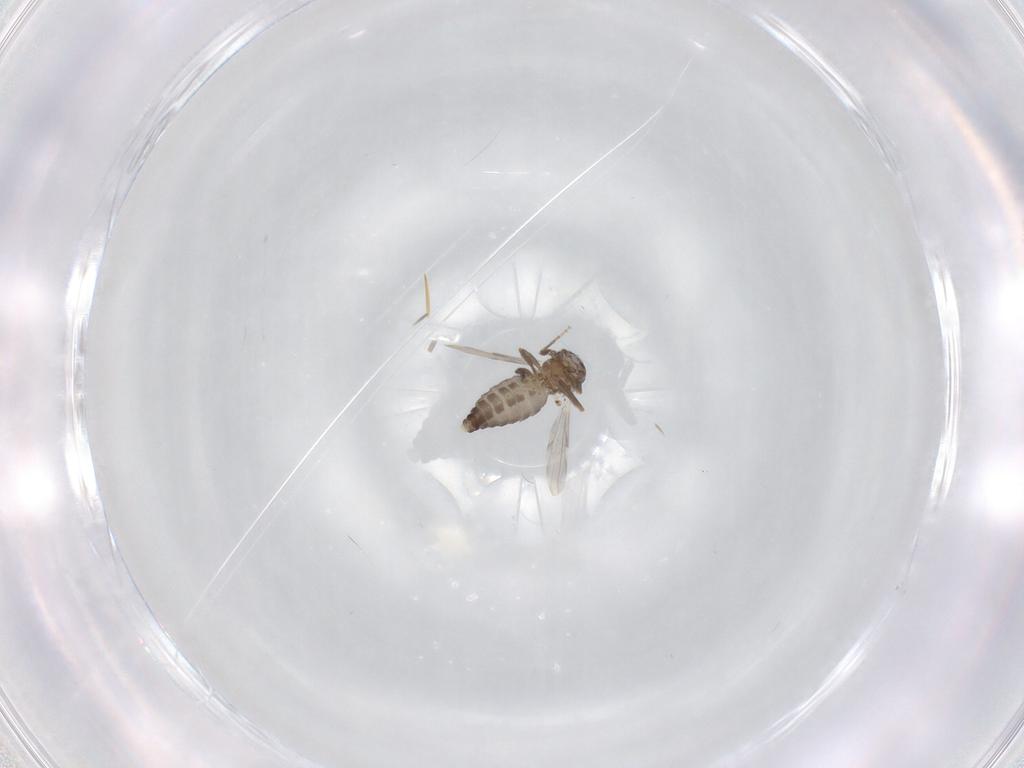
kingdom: Animalia
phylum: Arthropoda
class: Insecta
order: Diptera
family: Ceratopogonidae
